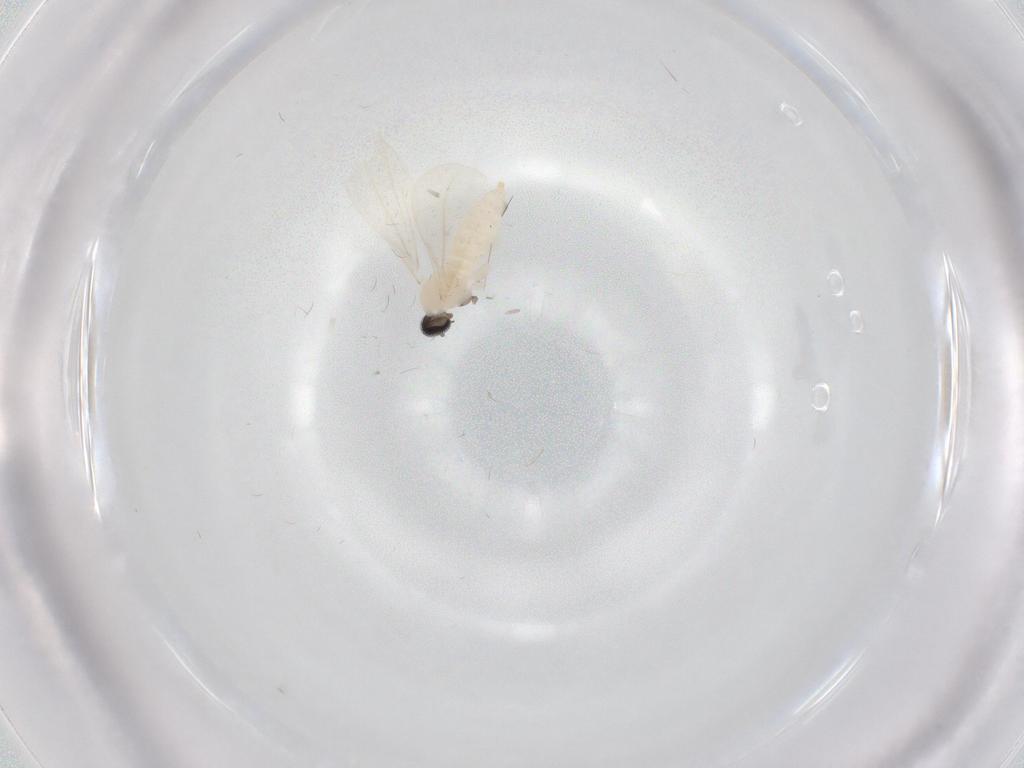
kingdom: Animalia
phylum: Arthropoda
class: Insecta
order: Diptera
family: Cecidomyiidae
